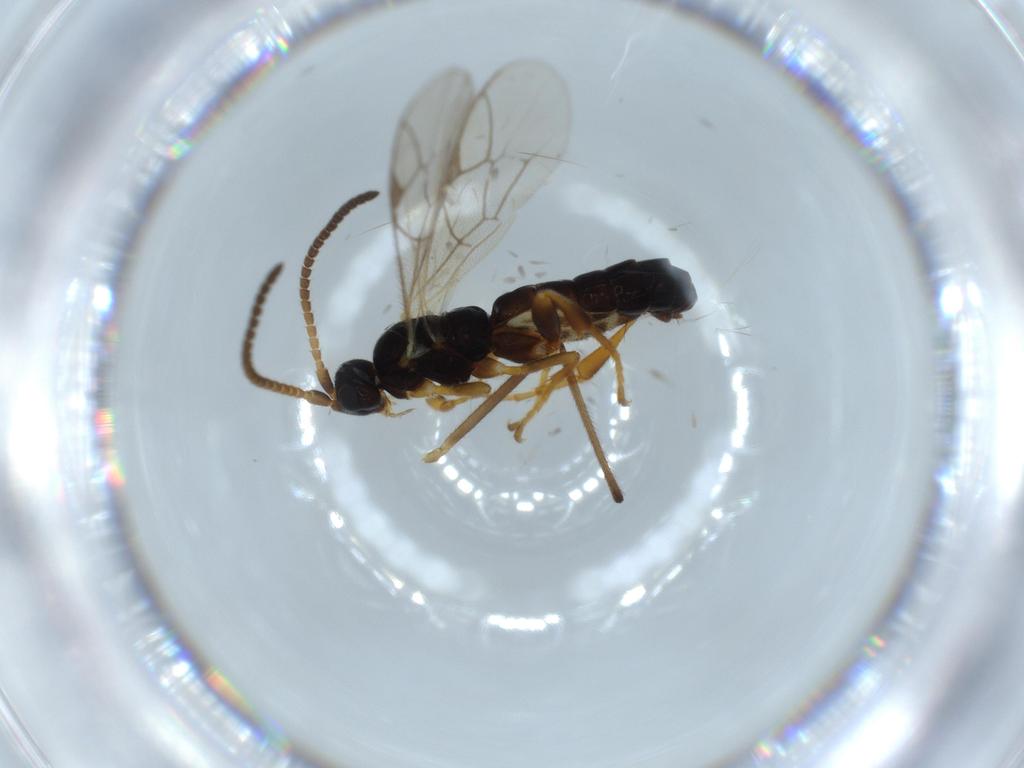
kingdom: Animalia
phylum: Arthropoda
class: Insecta
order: Hymenoptera
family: Ichneumonidae
